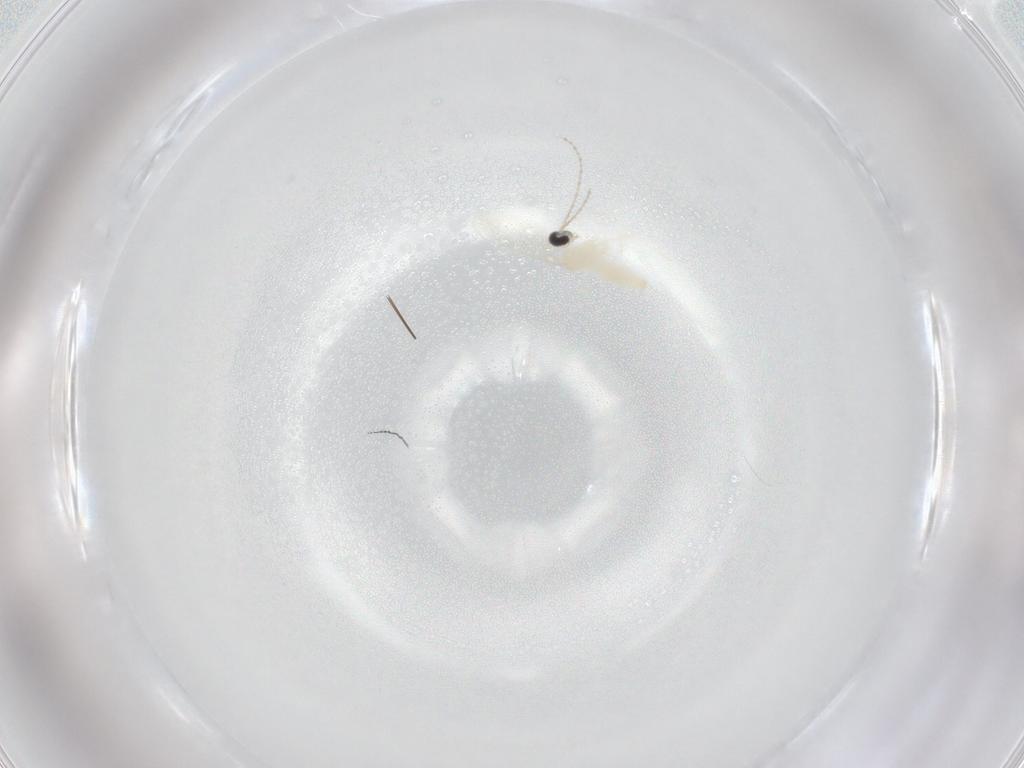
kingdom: Animalia
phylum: Arthropoda
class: Insecta
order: Diptera
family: Cecidomyiidae
